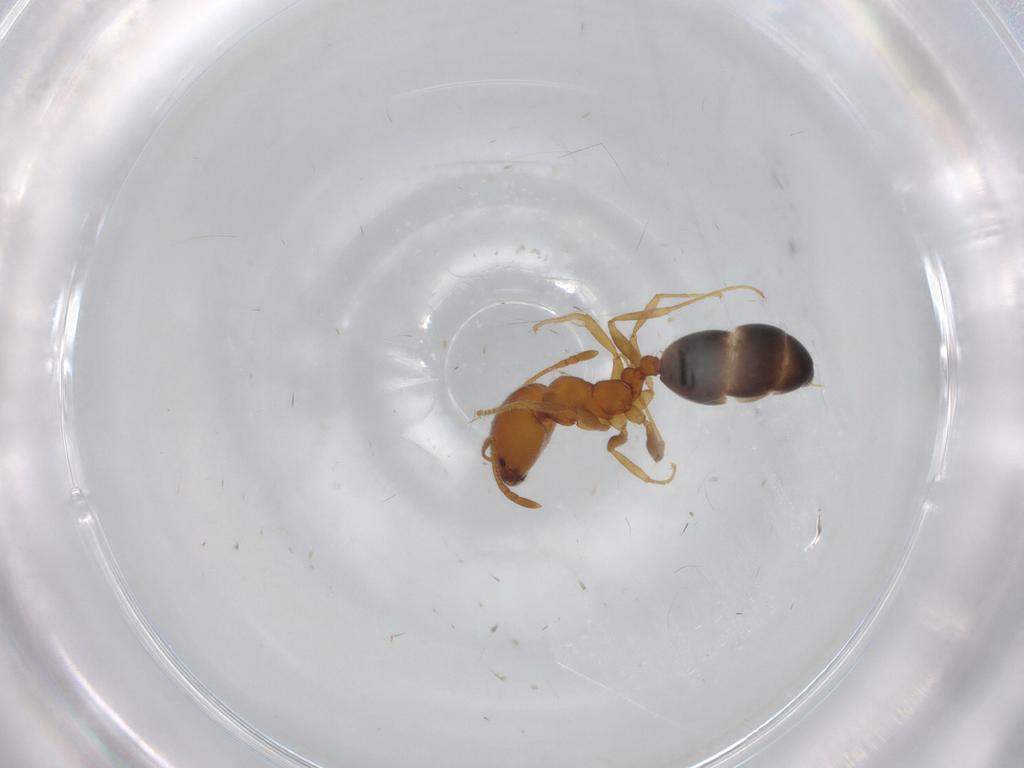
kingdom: Animalia
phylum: Arthropoda
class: Insecta
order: Hymenoptera
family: Formicidae
